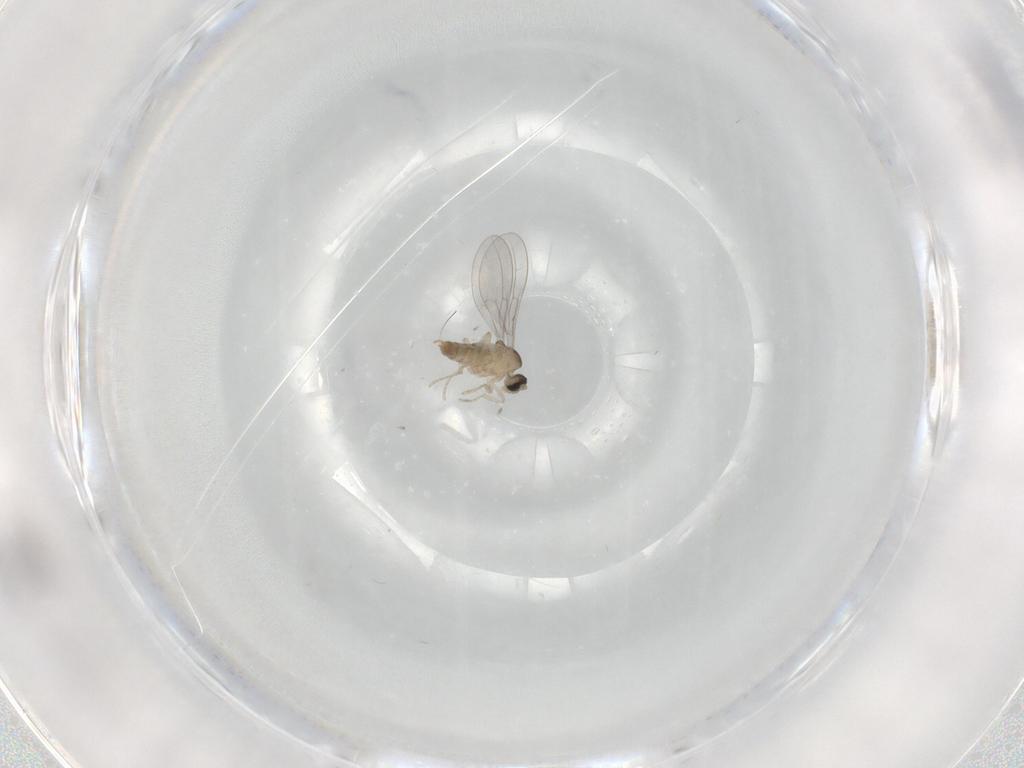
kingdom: Animalia
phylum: Arthropoda
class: Insecta
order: Diptera
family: Cecidomyiidae
